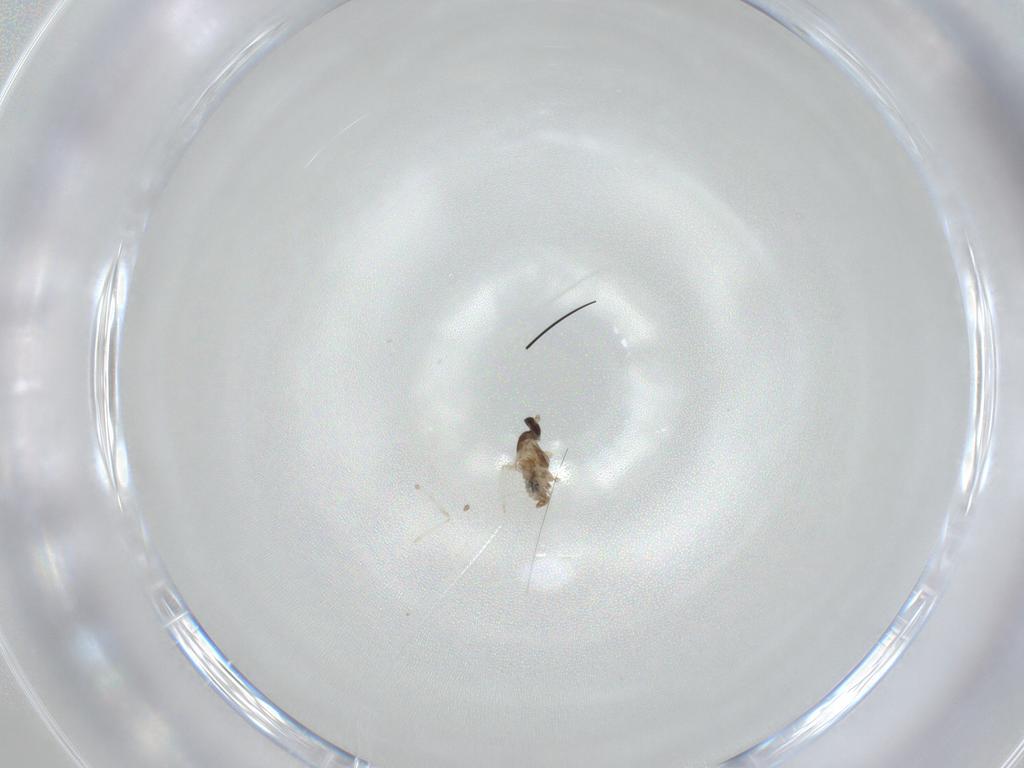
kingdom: Animalia
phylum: Arthropoda
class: Insecta
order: Diptera
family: Cecidomyiidae
